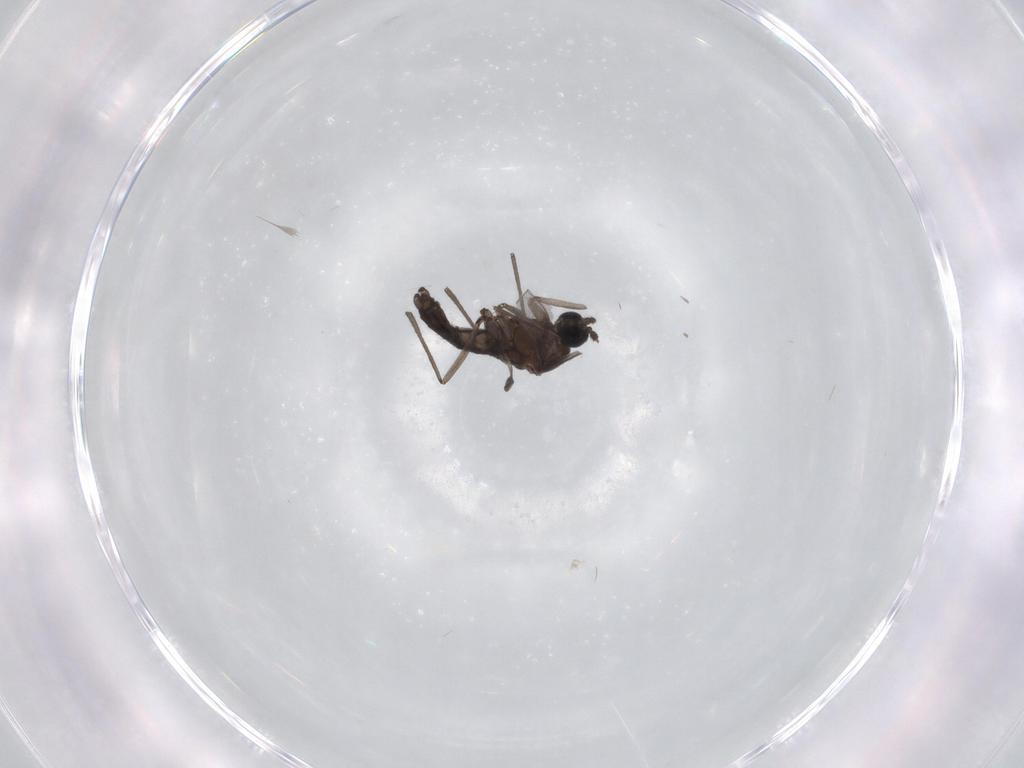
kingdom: Animalia
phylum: Arthropoda
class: Insecta
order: Diptera
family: Sciaridae
